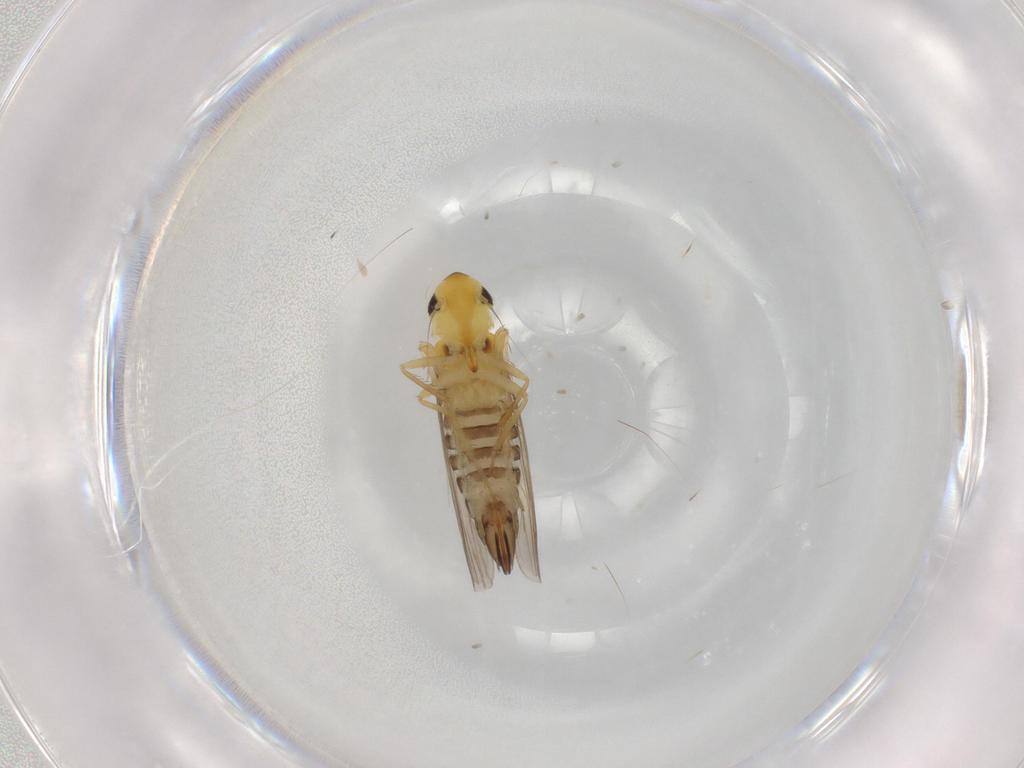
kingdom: Animalia
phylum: Arthropoda
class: Insecta
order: Hemiptera
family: Cicadellidae
